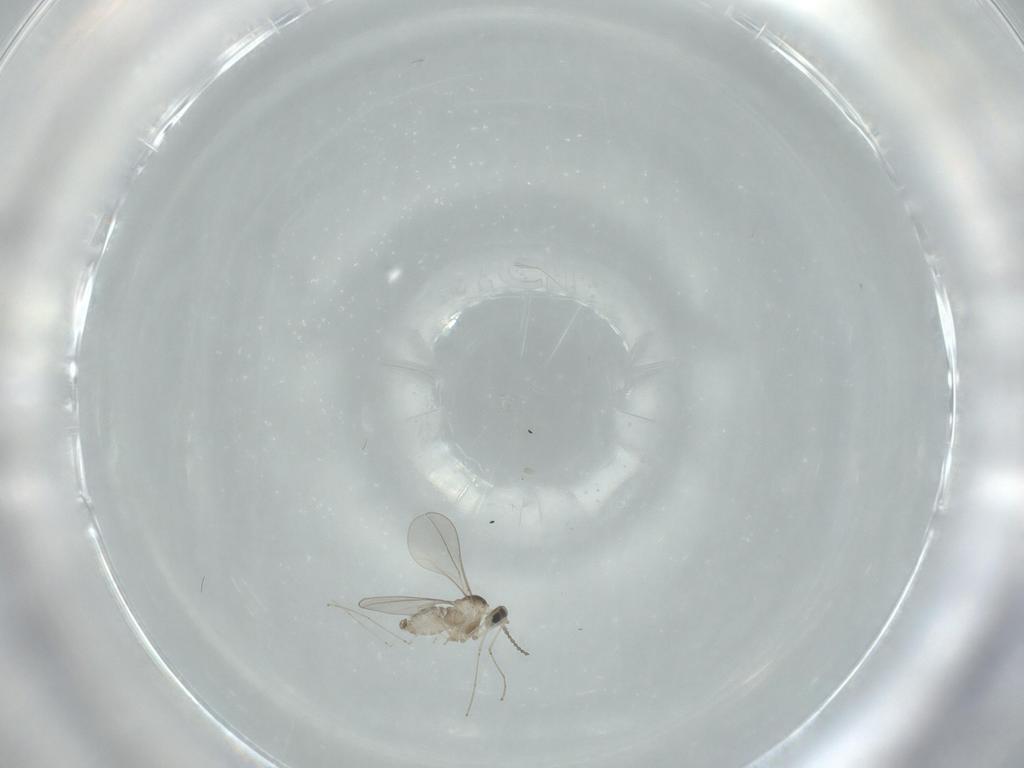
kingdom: Animalia
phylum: Arthropoda
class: Insecta
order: Diptera
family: Cecidomyiidae
